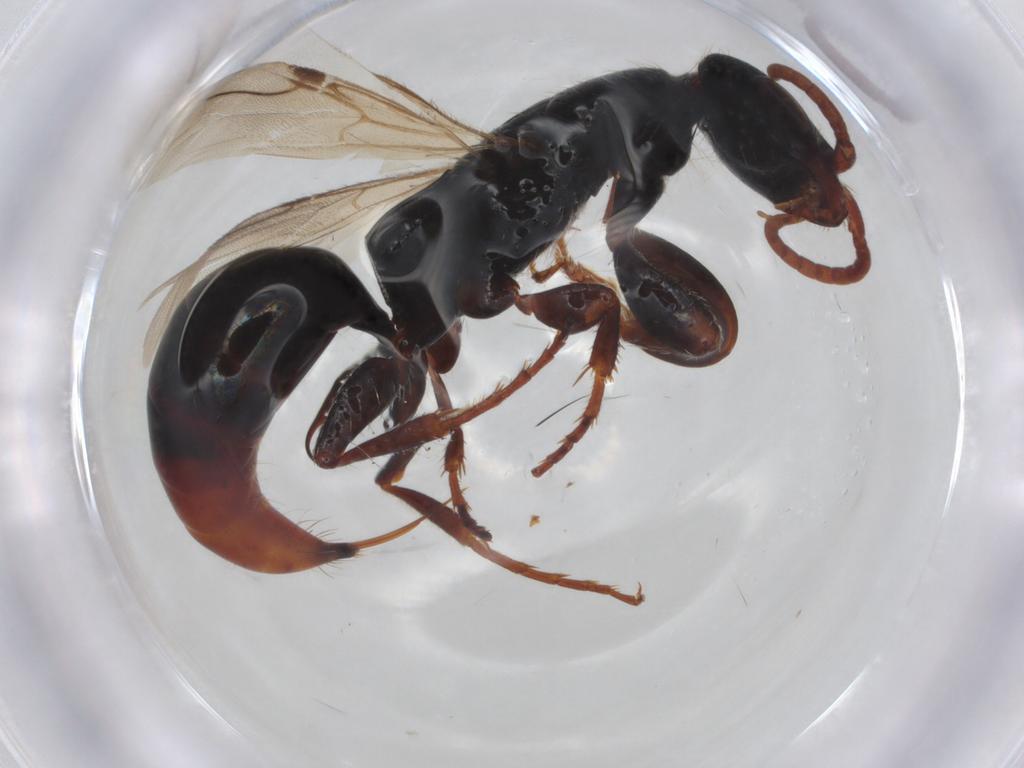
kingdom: Animalia
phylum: Arthropoda
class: Insecta
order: Hymenoptera
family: Bethylidae
